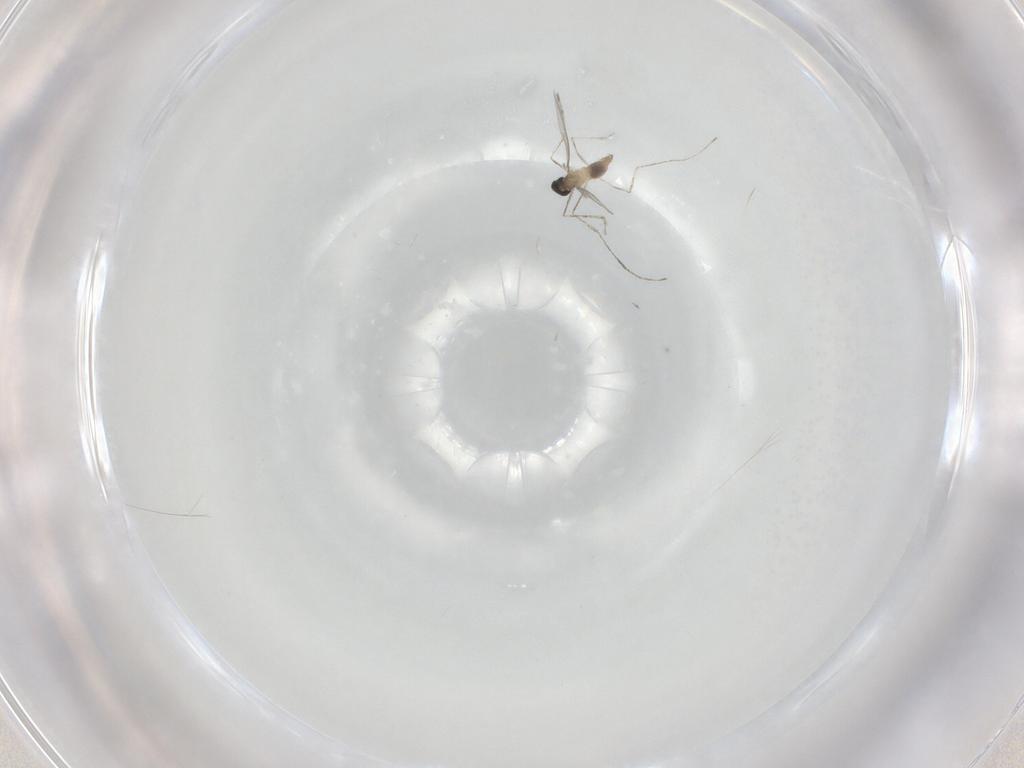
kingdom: Animalia
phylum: Arthropoda
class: Insecta
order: Diptera
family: Cecidomyiidae
